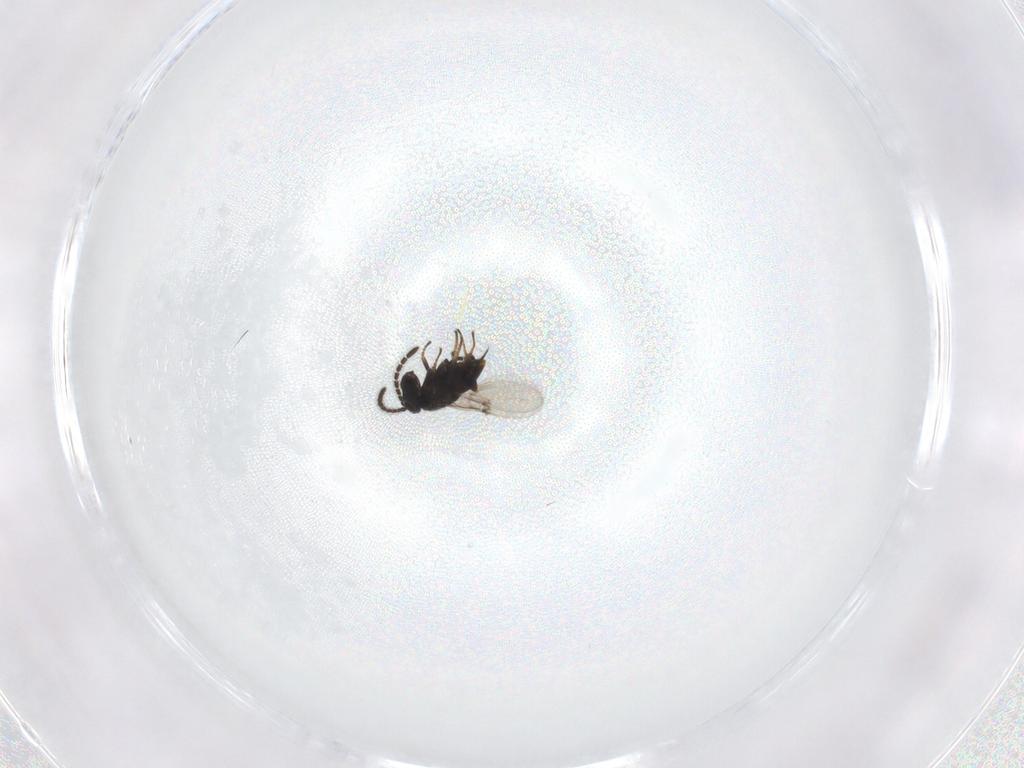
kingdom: Animalia
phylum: Arthropoda
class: Insecta
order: Hymenoptera
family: Encyrtidae
